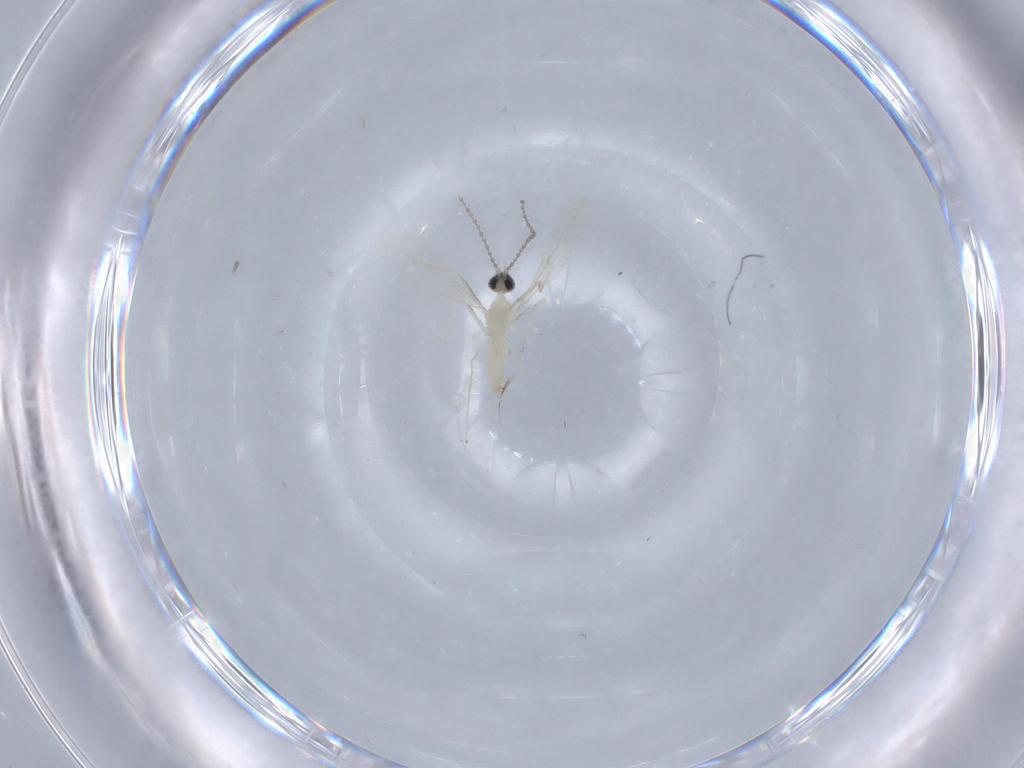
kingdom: Animalia
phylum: Arthropoda
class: Insecta
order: Diptera
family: Cecidomyiidae
